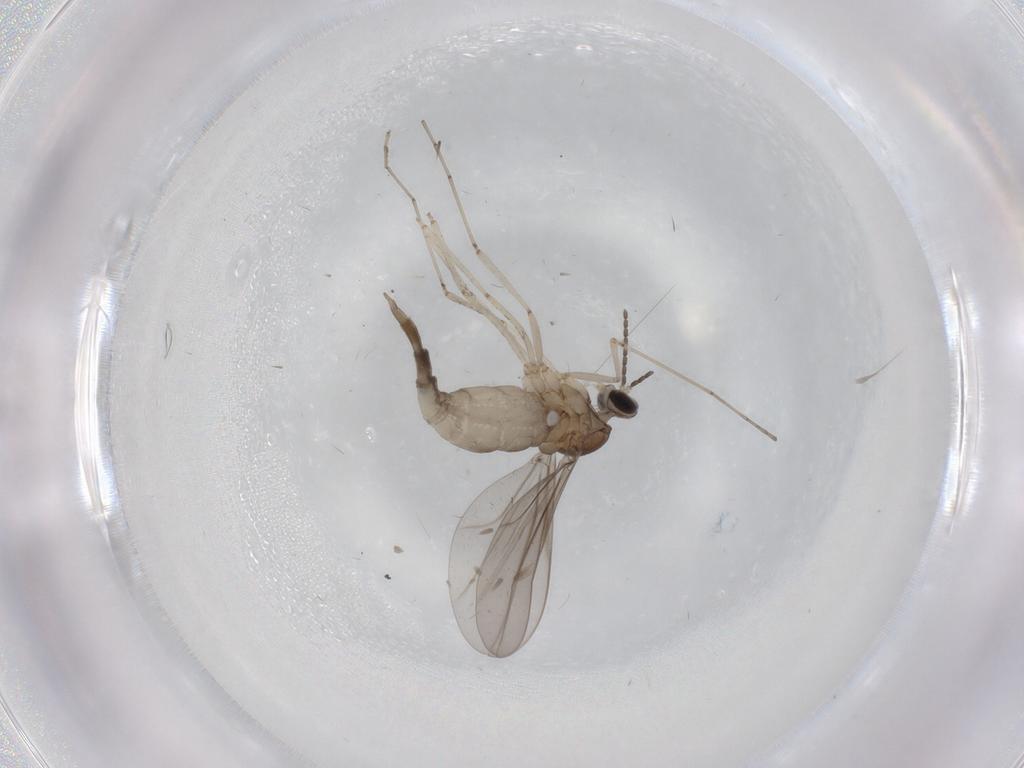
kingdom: Animalia
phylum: Arthropoda
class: Insecta
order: Diptera
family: Cecidomyiidae
